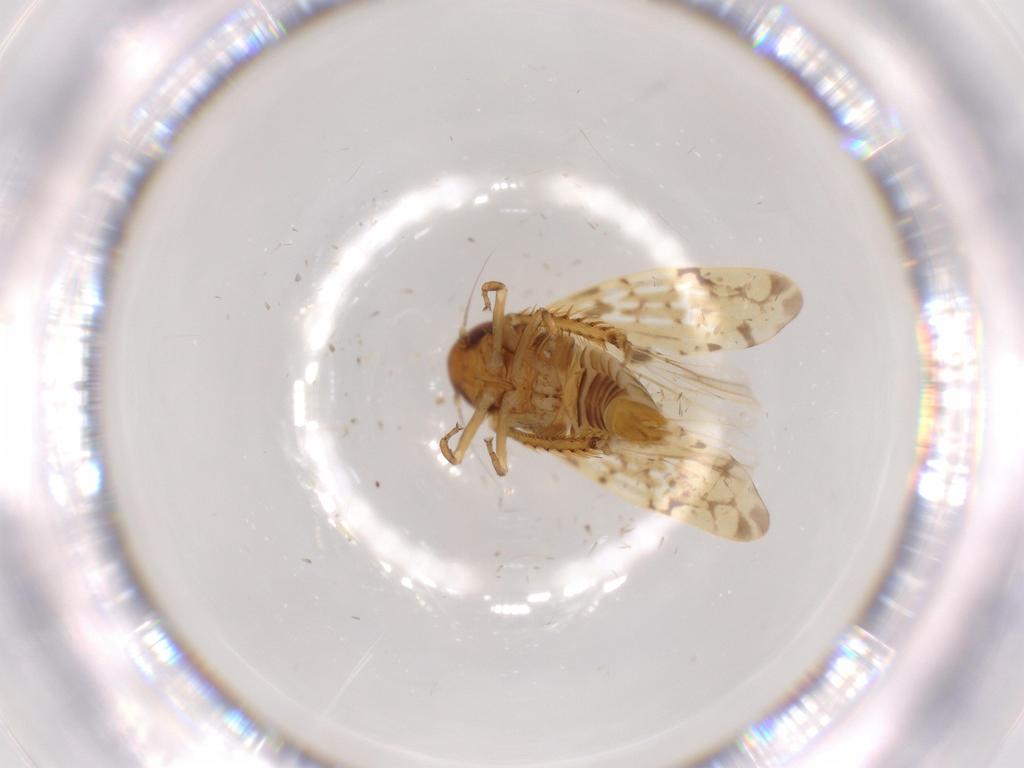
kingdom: Animalia
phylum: Arthropoda
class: Insecta
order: Hemiptera
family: Cicadellidae
